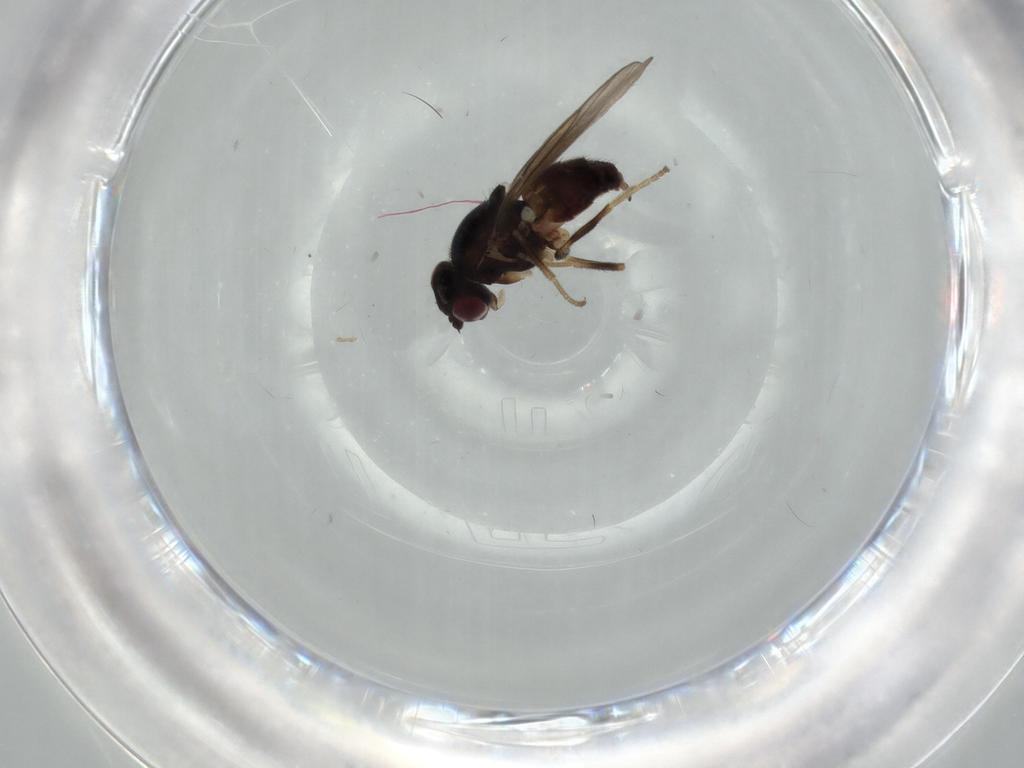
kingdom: Animalia
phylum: Arthropoda
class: Insecta
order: Diptera
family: Chloropidae
